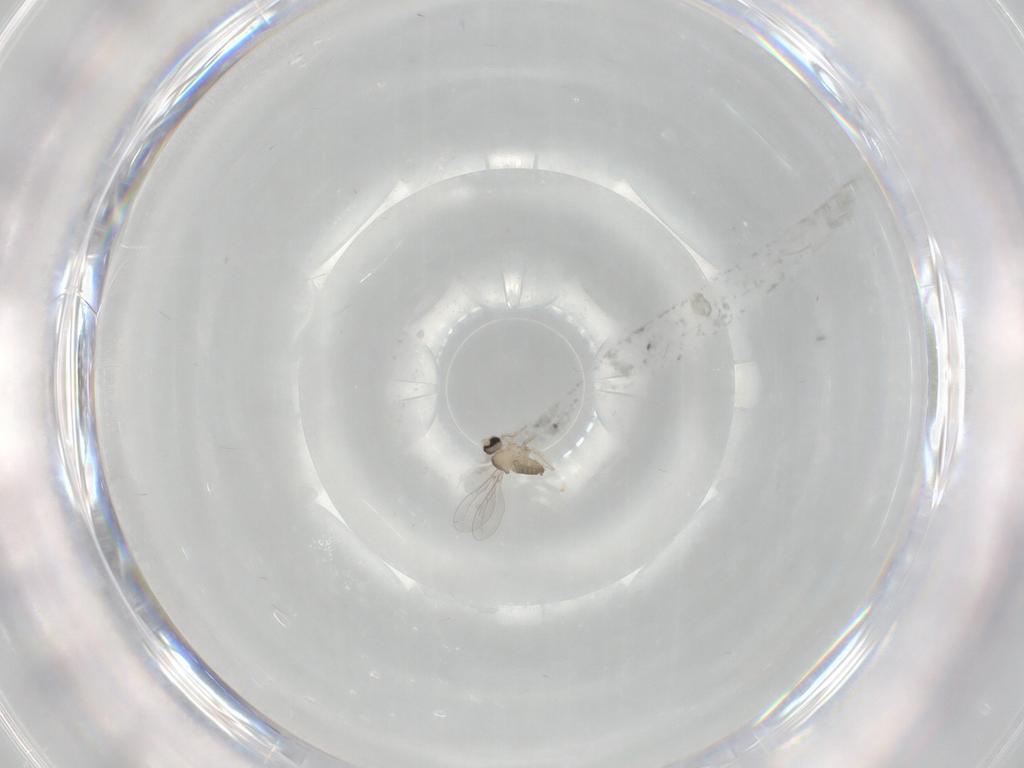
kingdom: Animalia
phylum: Arthropoda
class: Insecta
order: Diptera
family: Cecidomyiidae
